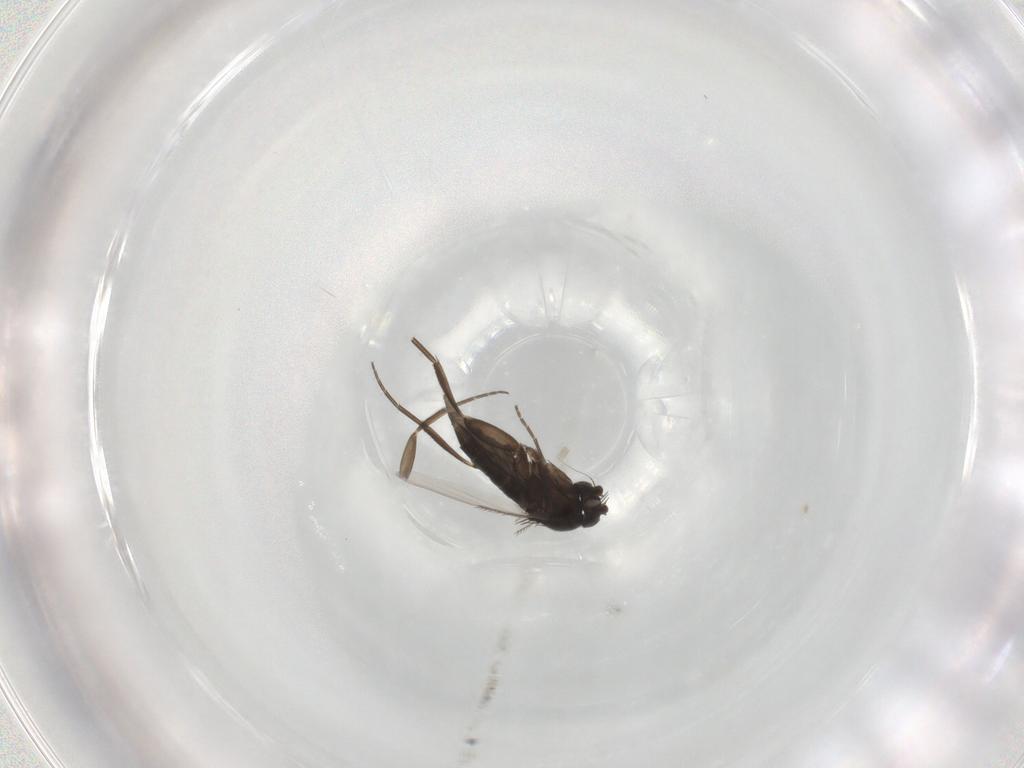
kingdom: Animalia
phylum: Arthropoda
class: Insecta
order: Diptera
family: Phoridae
